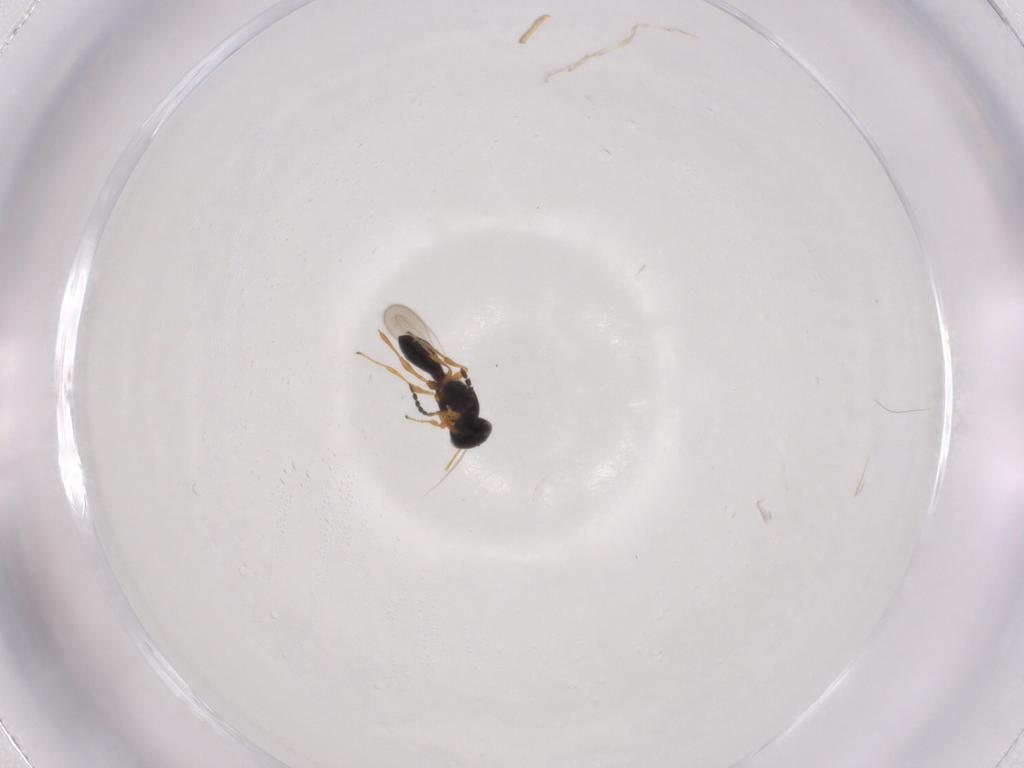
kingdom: Animalia
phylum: Arthropoda
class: Insecta
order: Hymenoptera
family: Platygastridae
